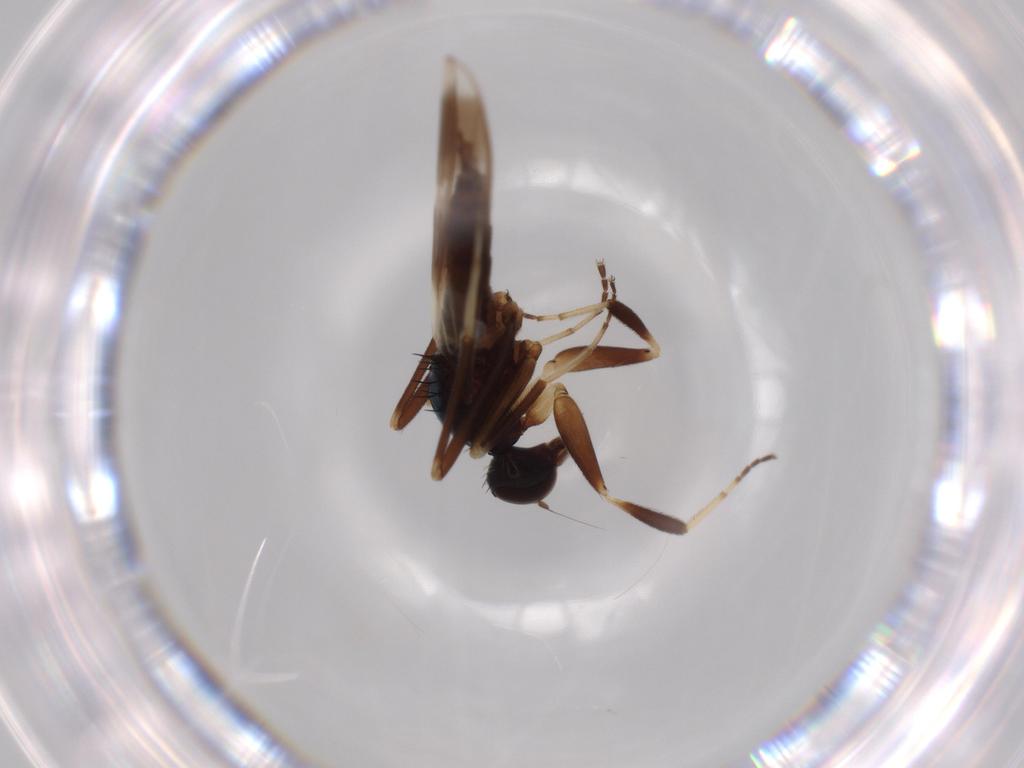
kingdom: Animalia
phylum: Arthropoda
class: Insecta
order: Diptera
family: Hybotidae
